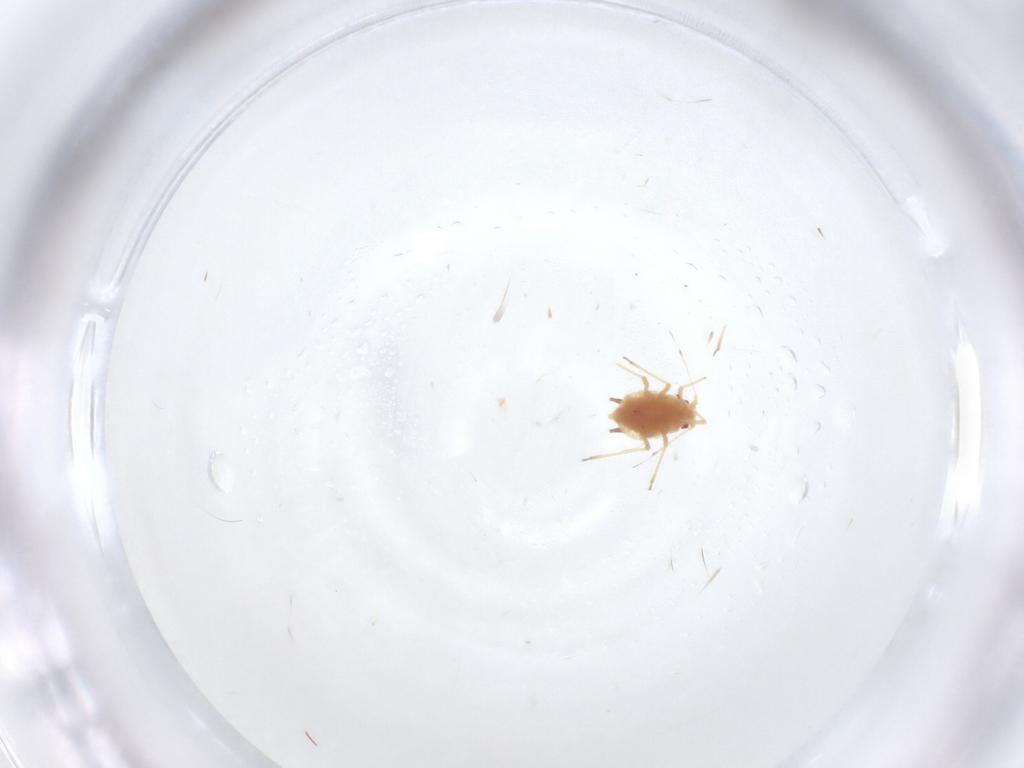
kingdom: Animalia
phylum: Arthropoda
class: Insecta
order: Hemiptera
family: Aphididae
